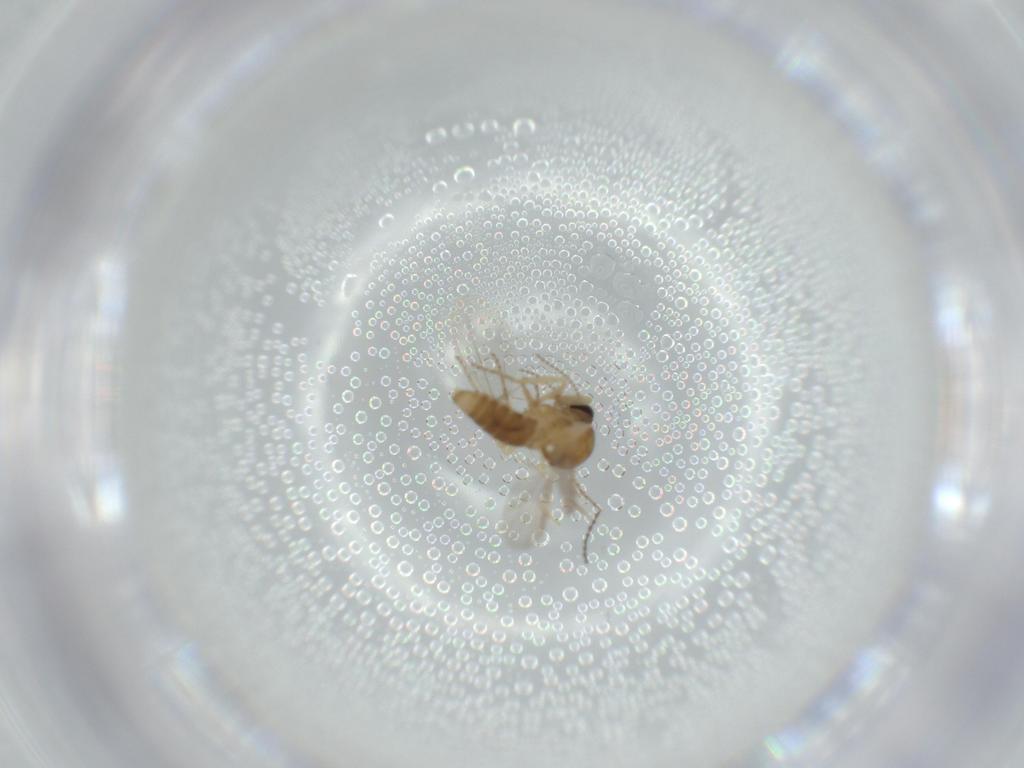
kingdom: Animalia
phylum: Arthropoda
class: Insecta
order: Diptera
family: Ceratopogonidae
